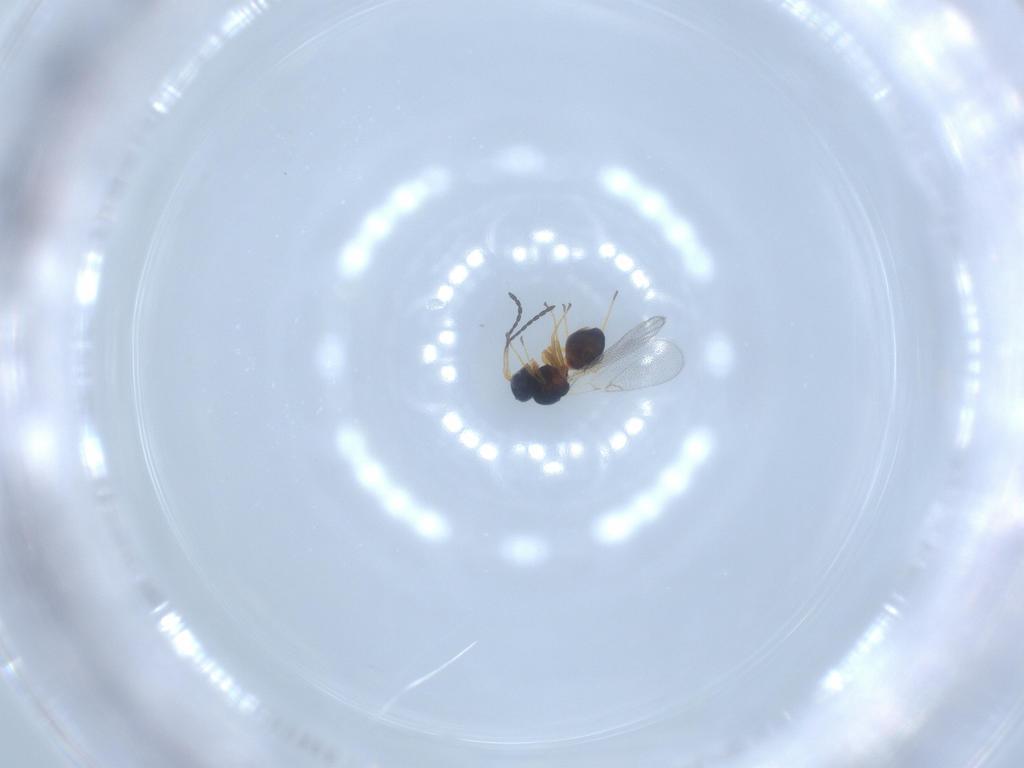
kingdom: Animalia
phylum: Arthropoda
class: Insecta
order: Hymenoptera
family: Figitidae
